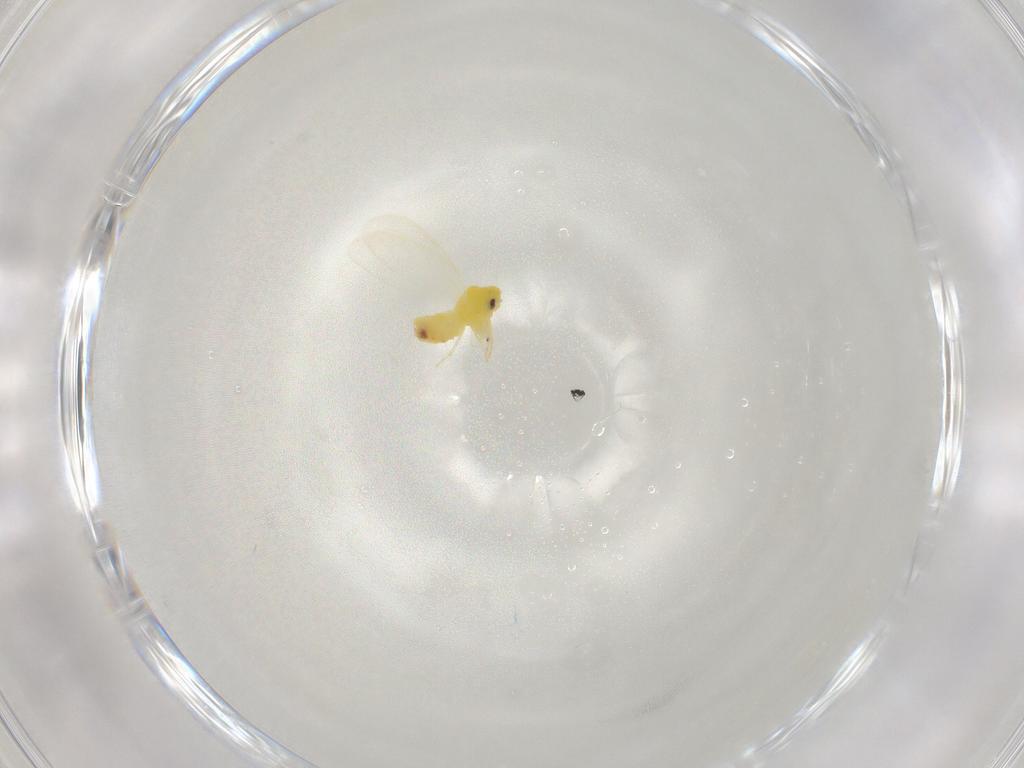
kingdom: Animalia
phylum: Arthropoda
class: Insecta
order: Hemiptera
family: Aleyrodidae
